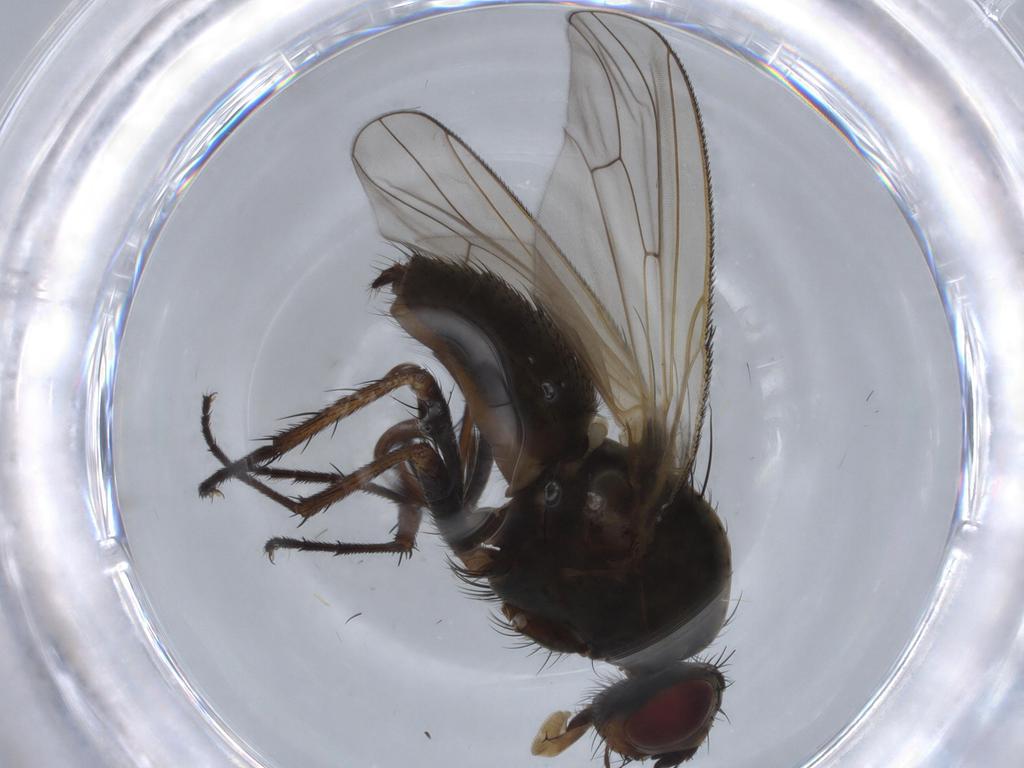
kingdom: Animalia
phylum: Arthropoda
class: Insecta
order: Diptera
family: Anthomyiidae
